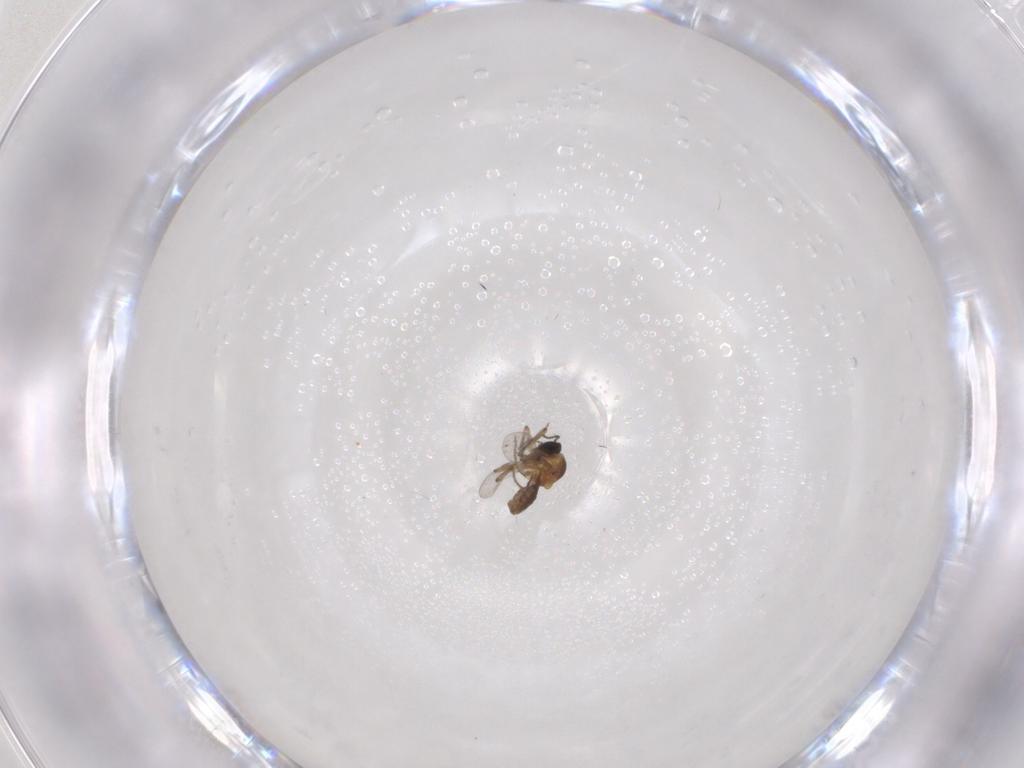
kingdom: Animalia
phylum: Arthropoda
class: Insecta
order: Diptera
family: Ceratopogonidae
